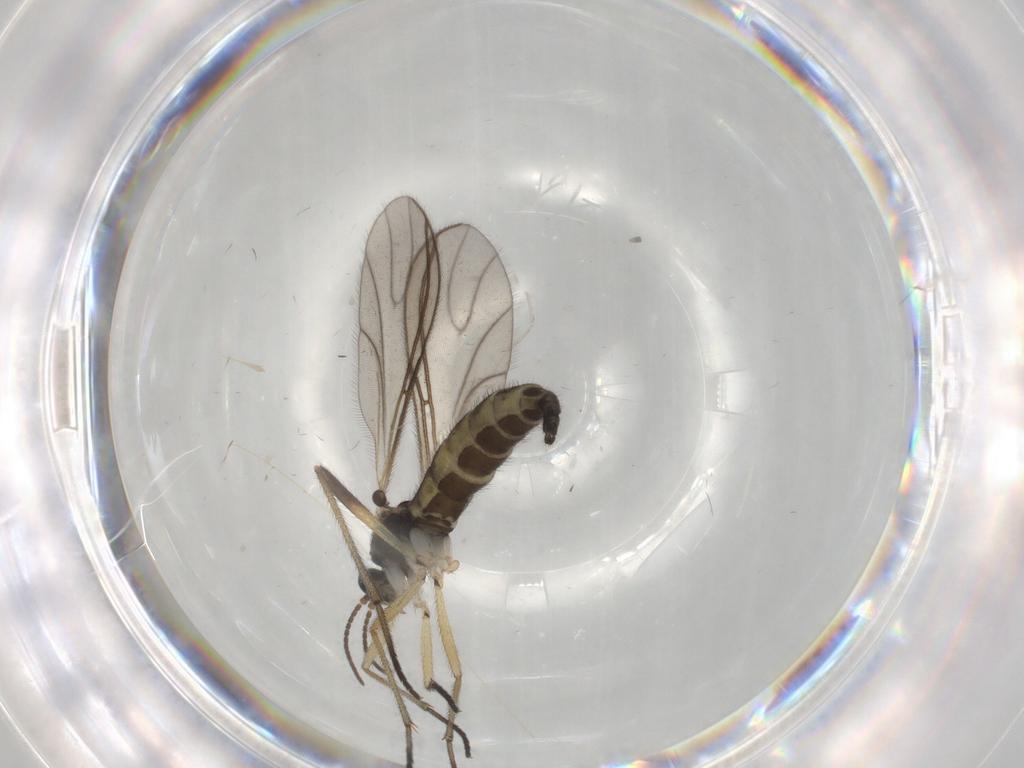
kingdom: Animalia
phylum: Arthropoda
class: Insecta
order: Diptera
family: Sciaridae
